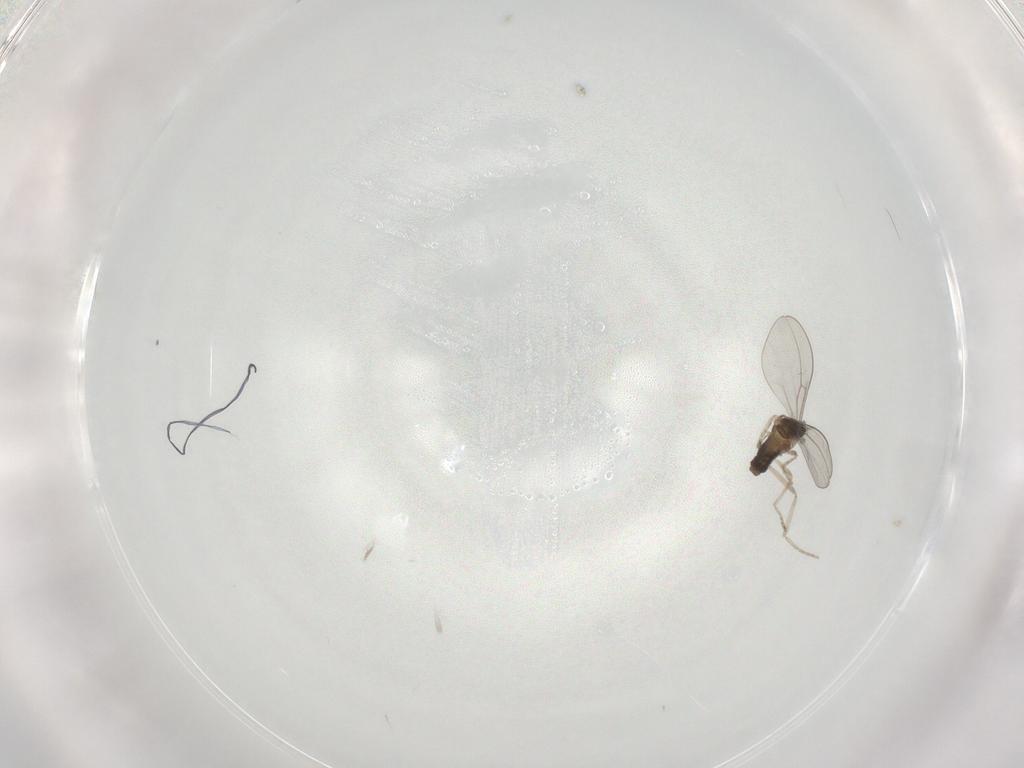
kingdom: Animalia
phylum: Arthropoda
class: Insecta
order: Diptera
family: Cecidomyiidae
